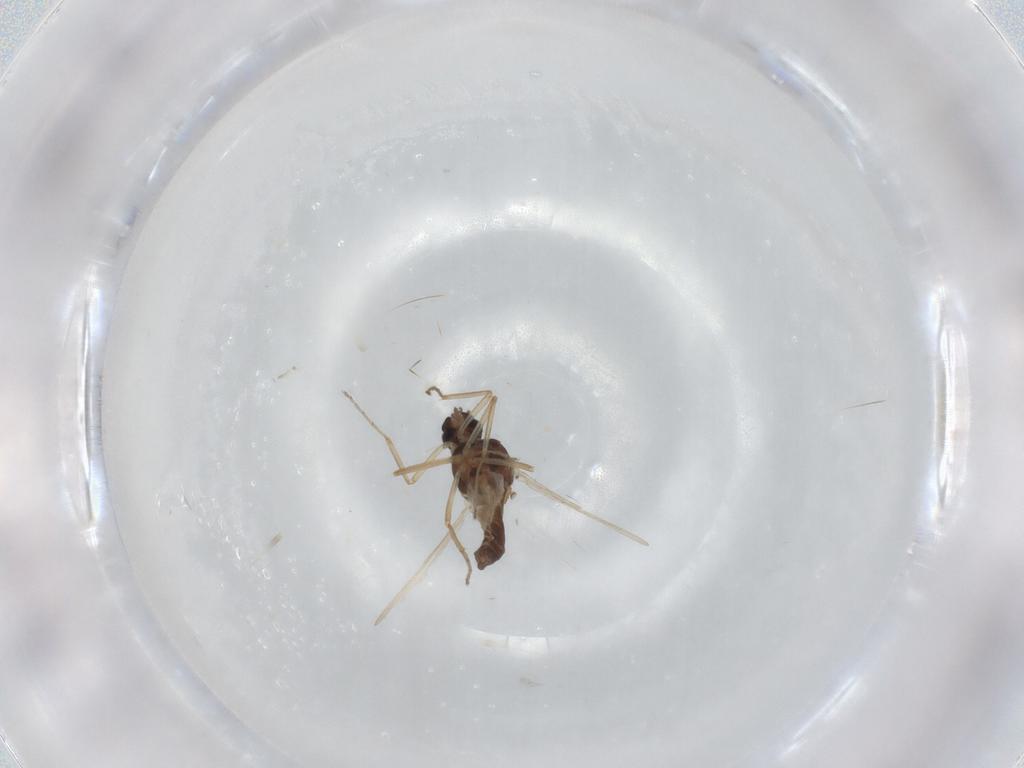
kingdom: Animalia
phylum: Arthropoda
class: Insecta
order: Diptera
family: Ceratopogonidae
